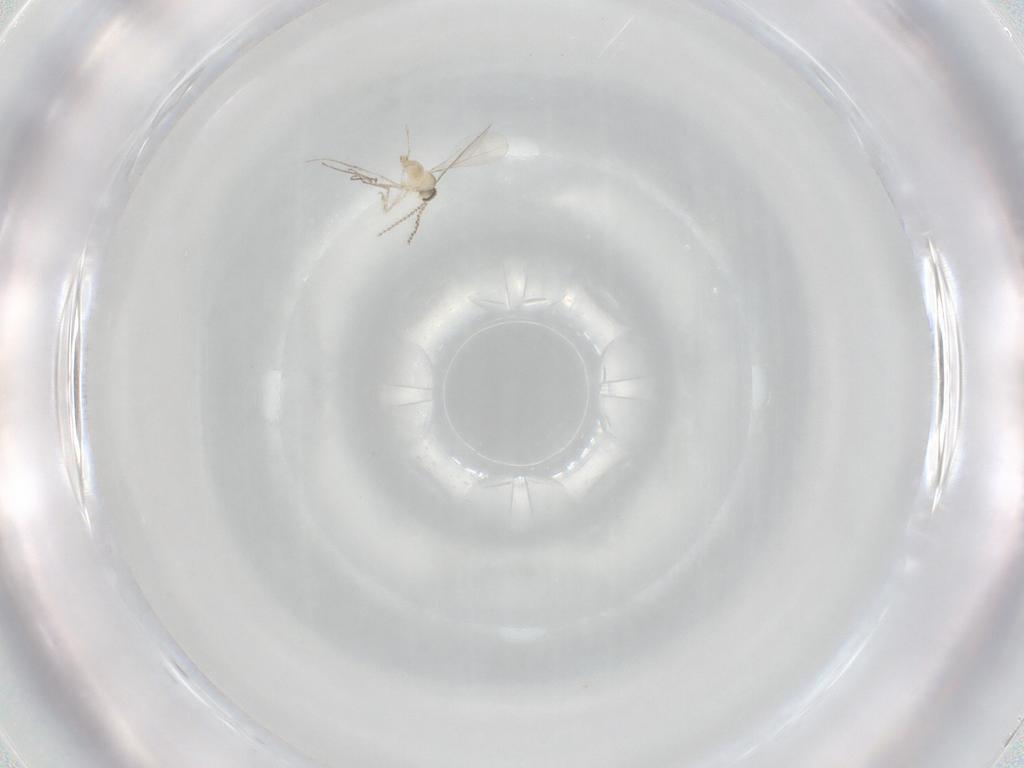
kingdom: Animalia
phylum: Arthropoda
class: Insecta
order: Diptera
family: Cecidomyiidae
